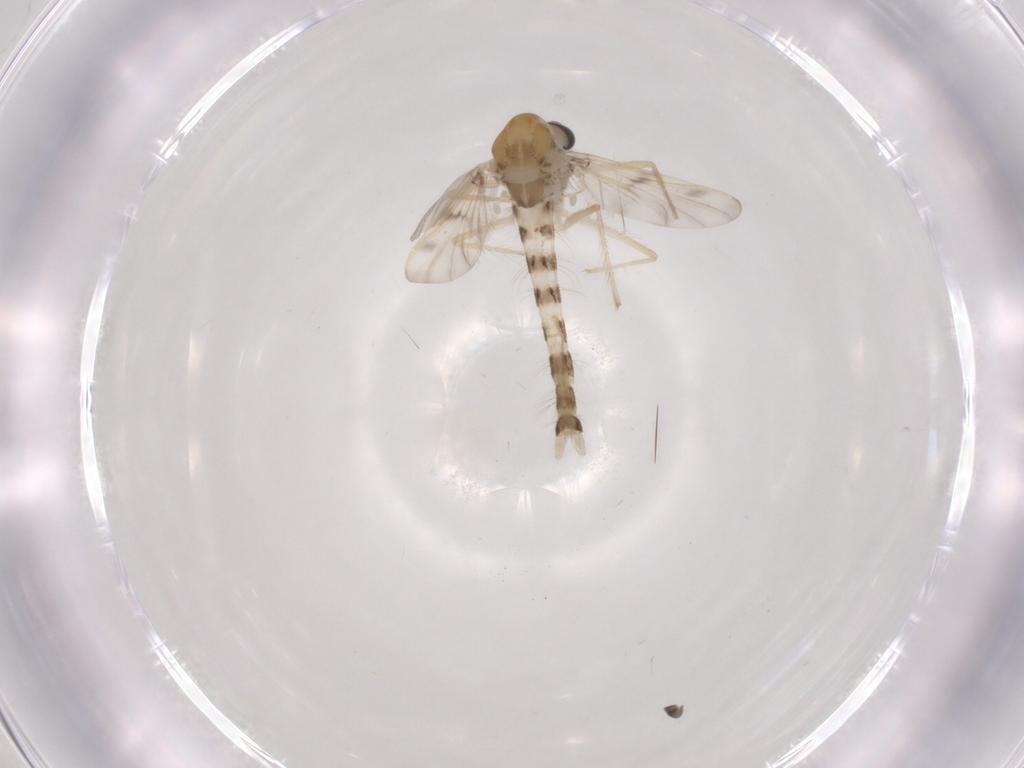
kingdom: Animalia
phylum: Arthropoda
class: Insecta
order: Diptera
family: Chironomidae
